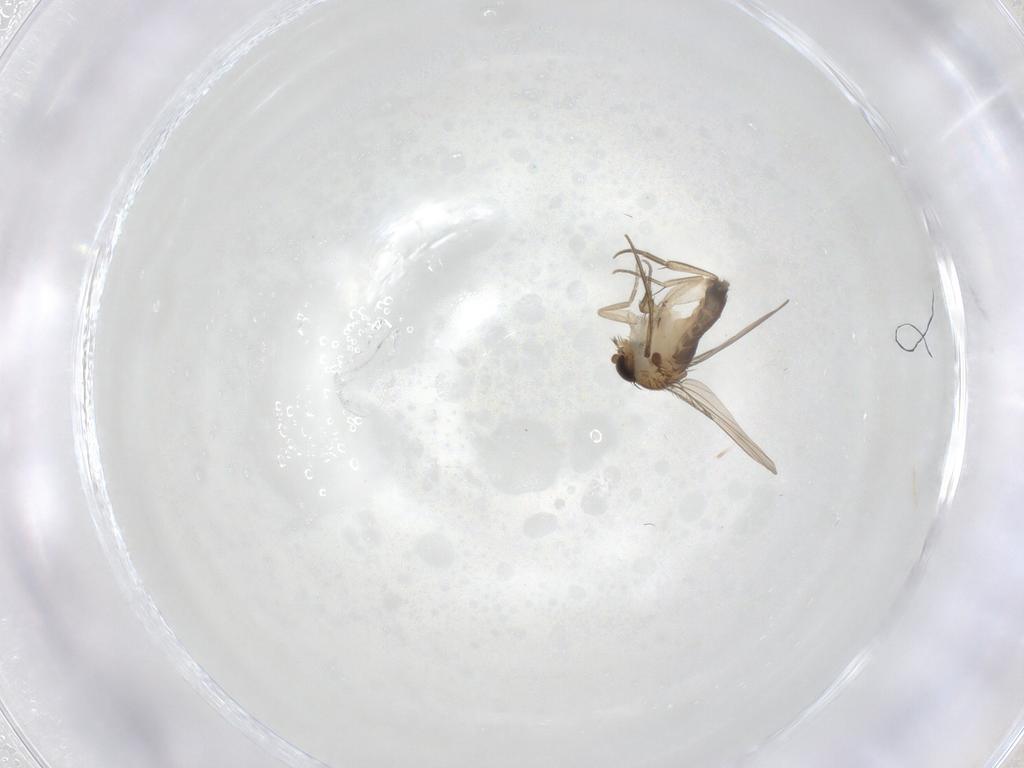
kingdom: Animalia
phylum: Arthropoda
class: Insecta
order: Diptera
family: Phoridae
